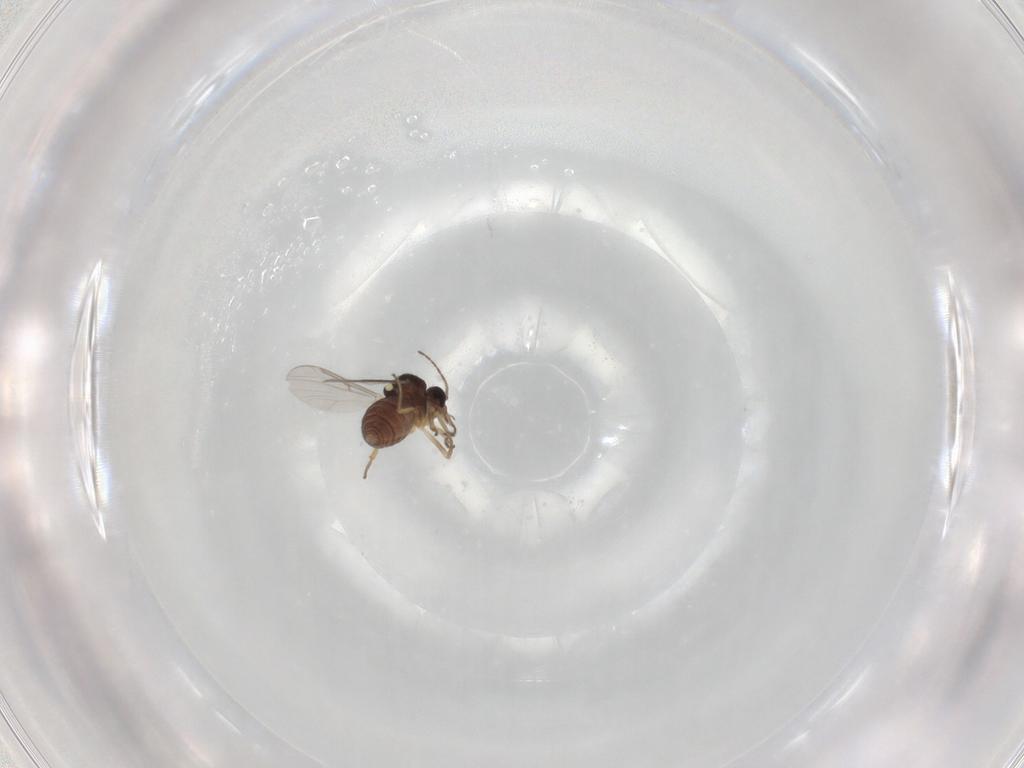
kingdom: Animalia
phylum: Arthropoda
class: Insecta
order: Diptera
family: Ceratopogonidae
